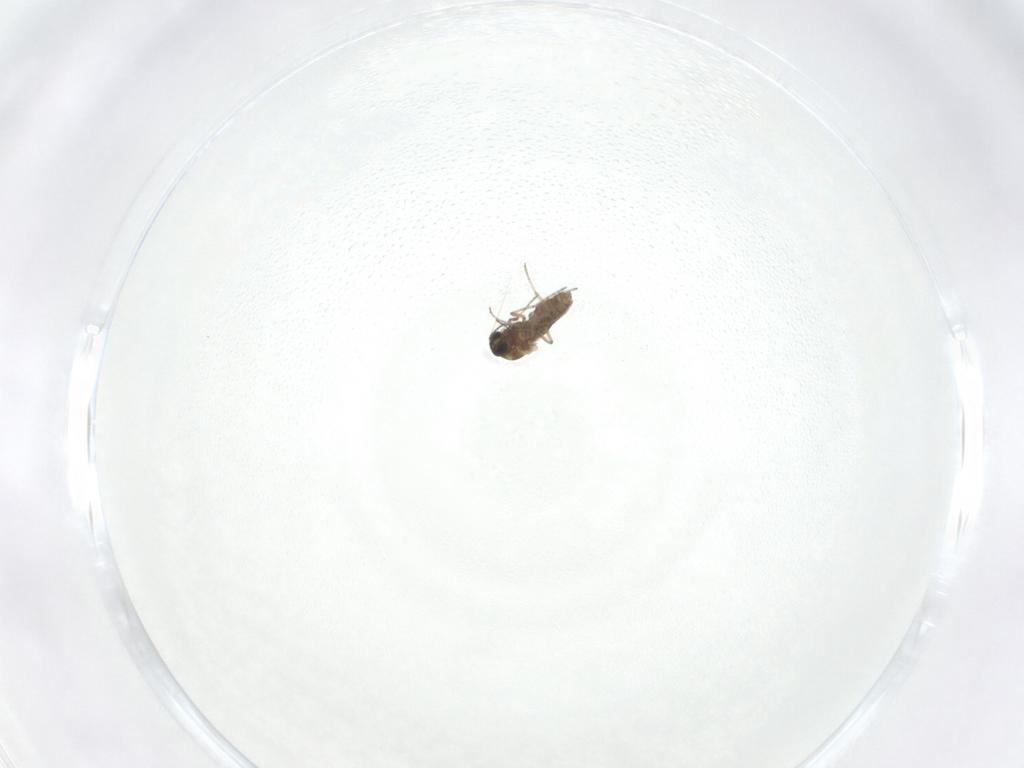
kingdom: Animalia
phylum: Arthropoda
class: Insecta
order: Diptera
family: Ceratopogonidae
